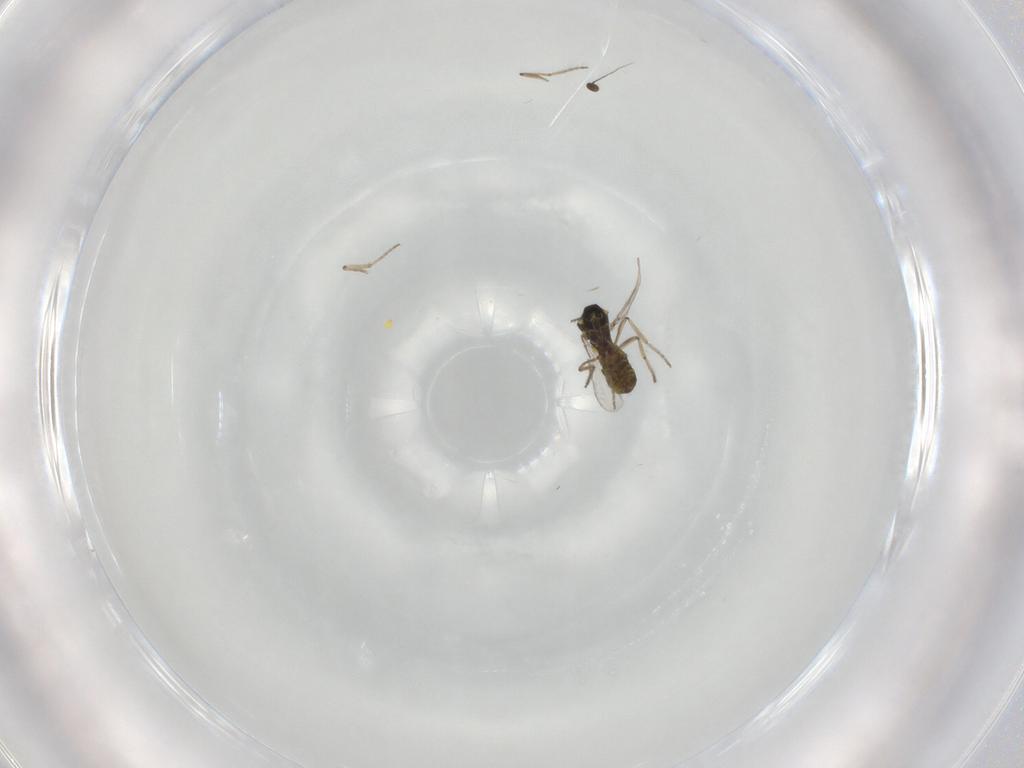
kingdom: Animalia
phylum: Arthropoda
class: Insecta
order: Diptera
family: Ceratopogonidae
